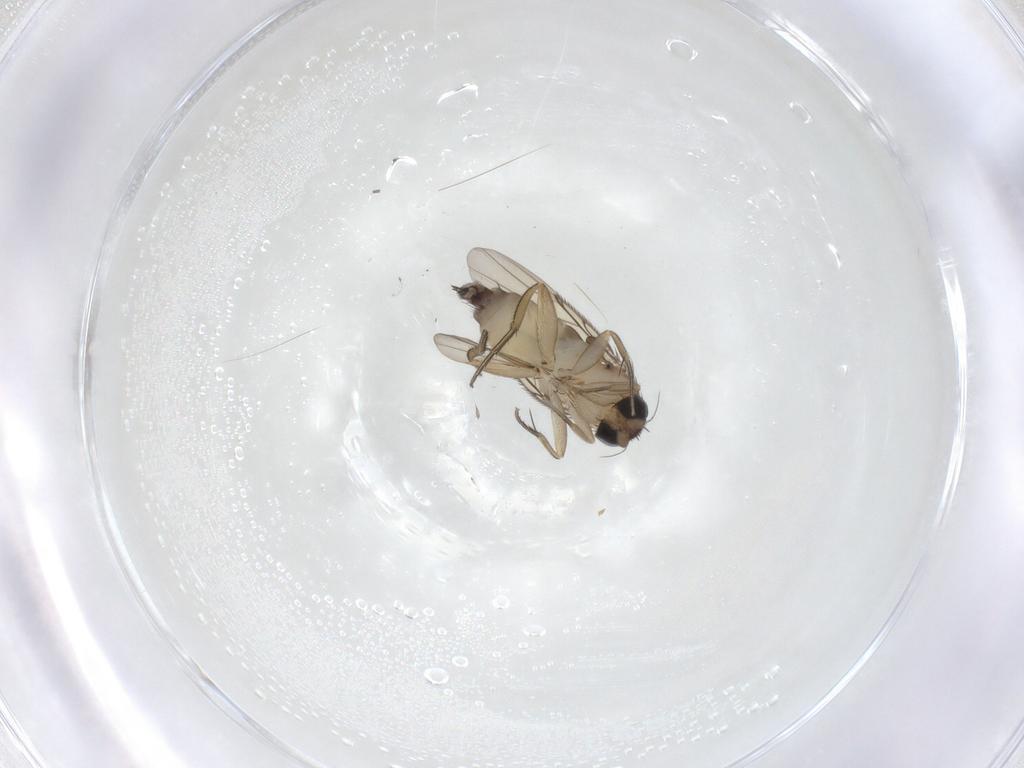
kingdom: Animalia
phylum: Arthropoda
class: Insecta
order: Diptera
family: Phoridae
